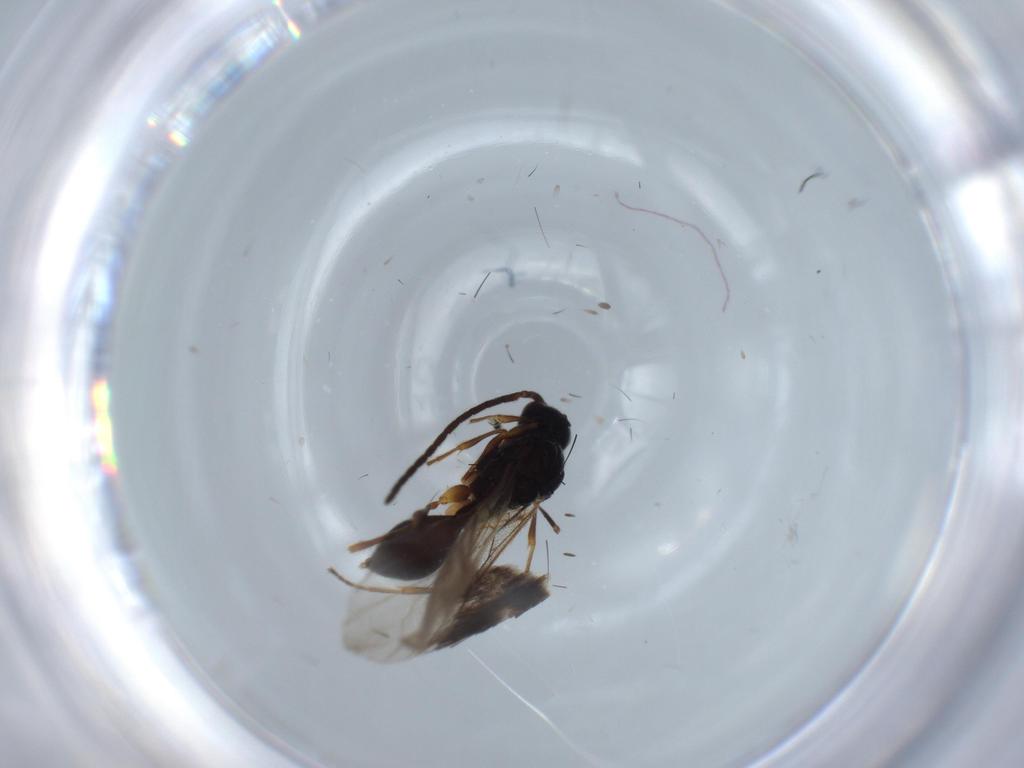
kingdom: Animalia
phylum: Arthropoda
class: Insecta
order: Hymenoptera
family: Diapriidae
